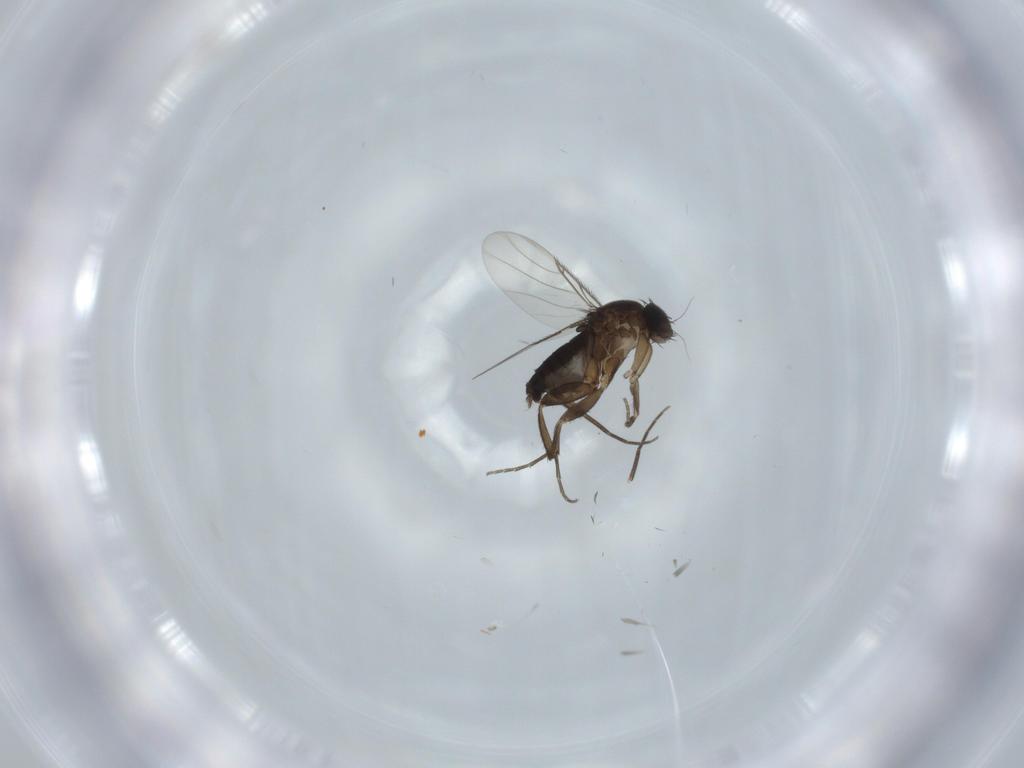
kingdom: Animalia
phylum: Arthropoda
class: Insecta
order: Diptera
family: Phoridae
